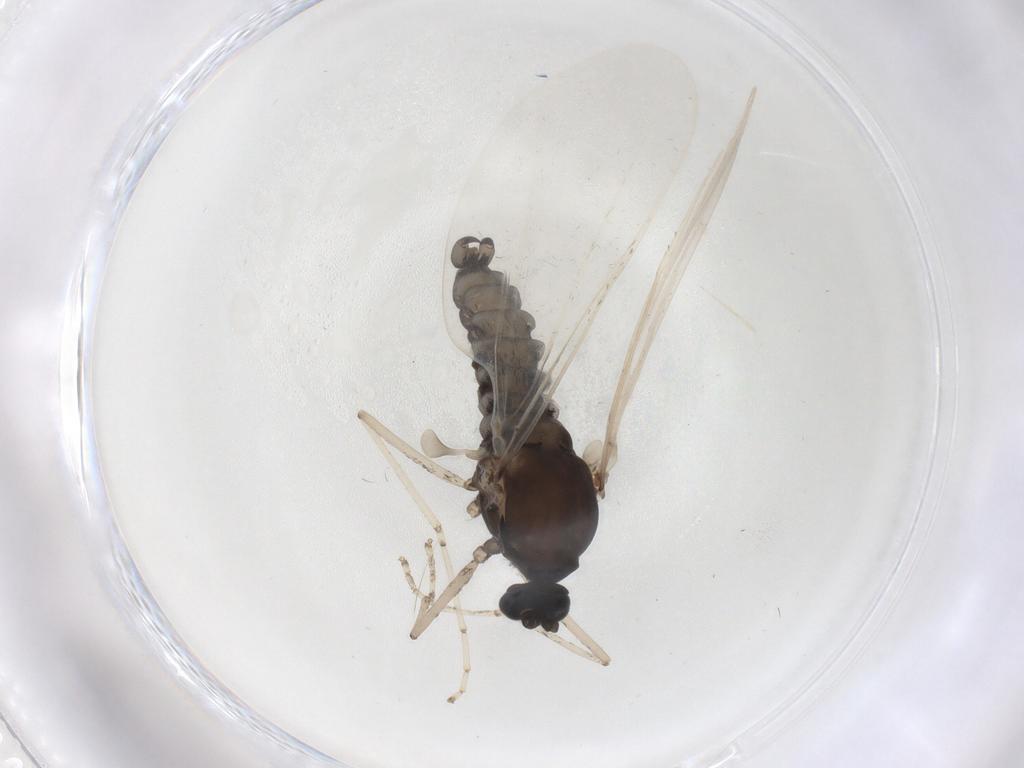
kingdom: Animalia
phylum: Arthropoda
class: Insecta
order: Diptera
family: Cecidomyiidae
